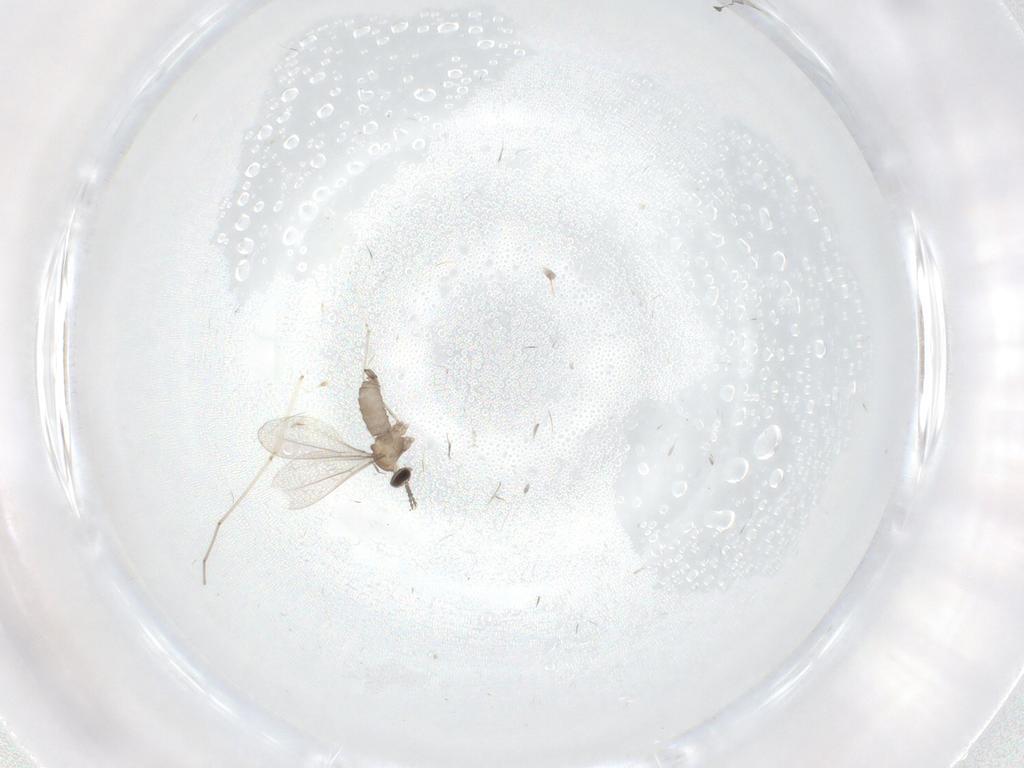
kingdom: Animalia
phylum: Arthropoda
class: Insecta
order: Diptera
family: Cecidomyiidae
